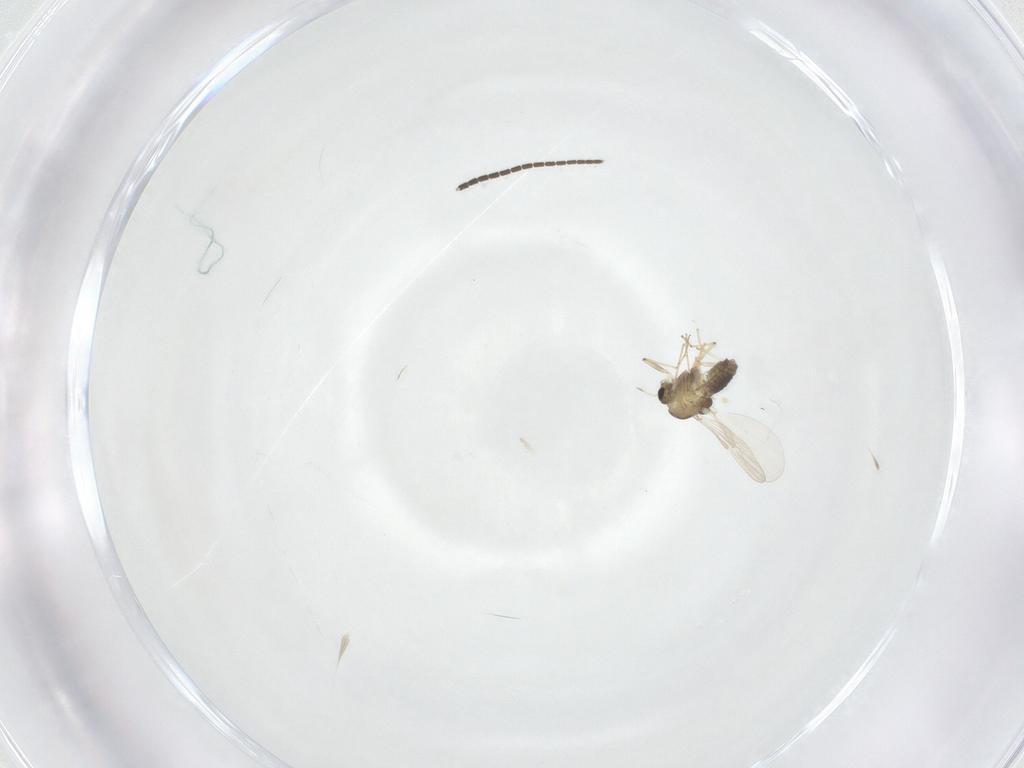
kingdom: Animalia
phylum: Arthropoda
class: Insecta
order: Diptera
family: Chironomidae
